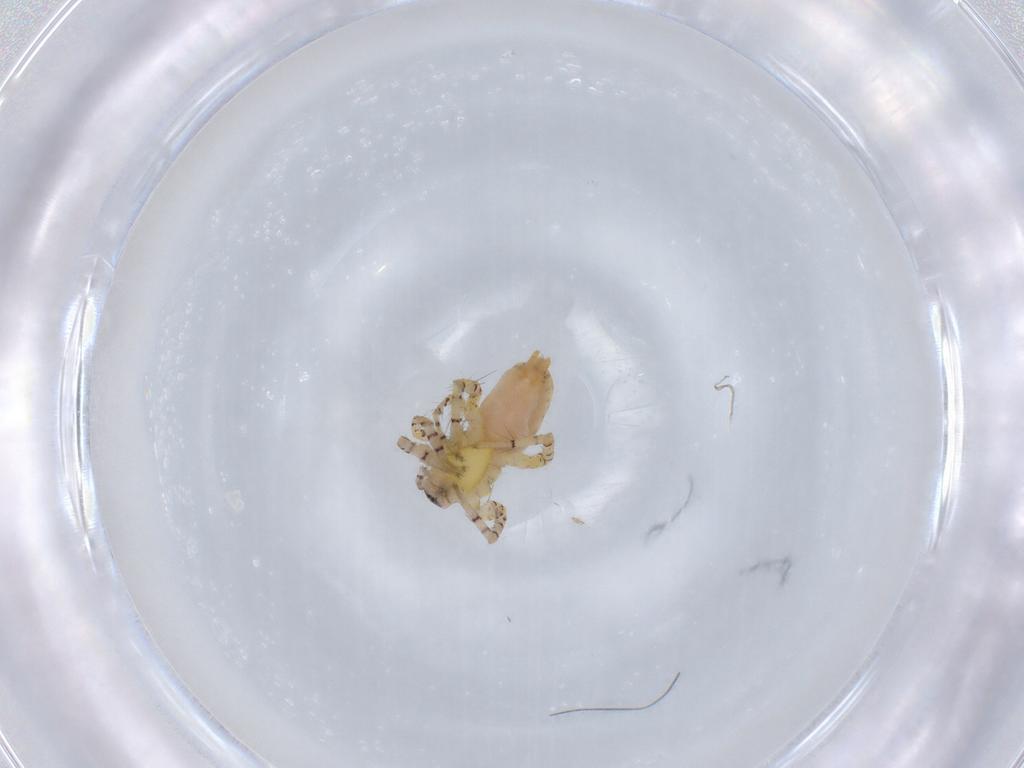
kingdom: Animalia
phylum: Arthropoda
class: Arachnida
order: Araneae
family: Anyphaenidae
